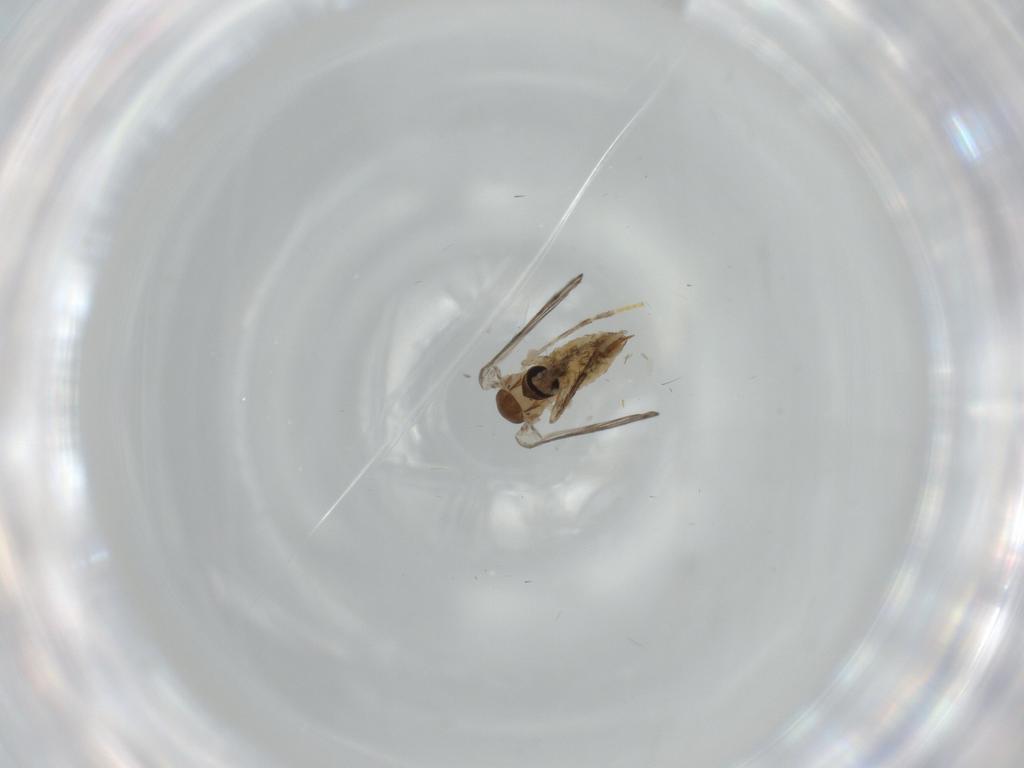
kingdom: Animalia
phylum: Arthropoda
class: Insecta
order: Diptera
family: Psychodidae
